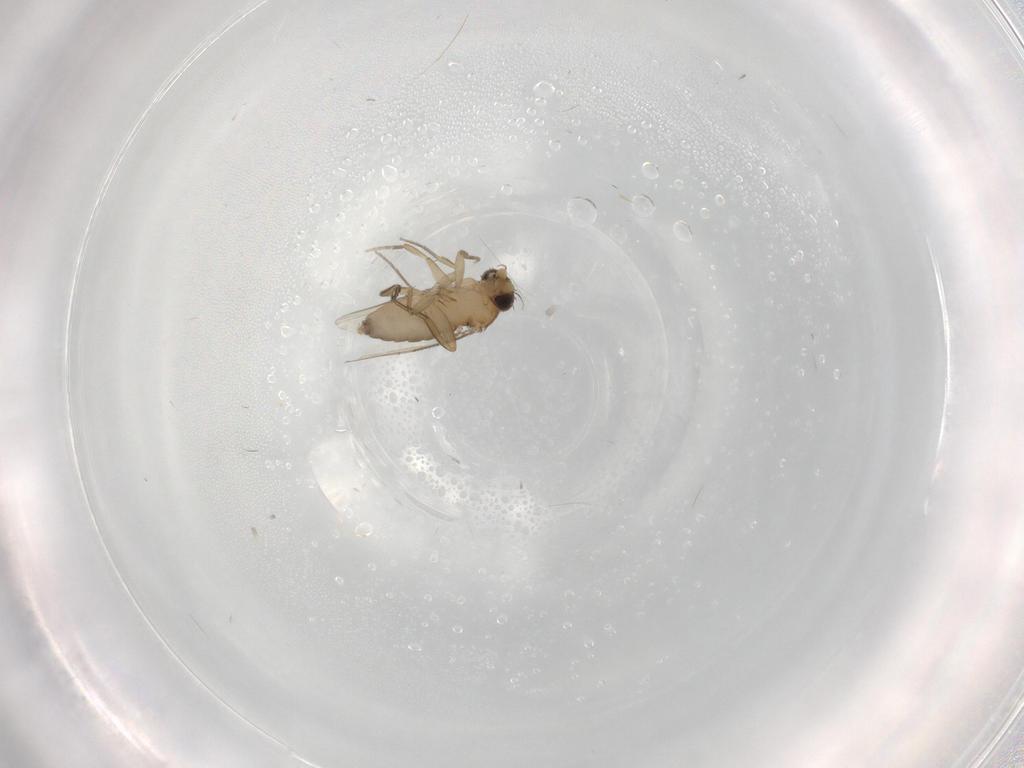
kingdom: Animalia
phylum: Arthropoda
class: Insecta
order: Diptera
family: Phoridae
